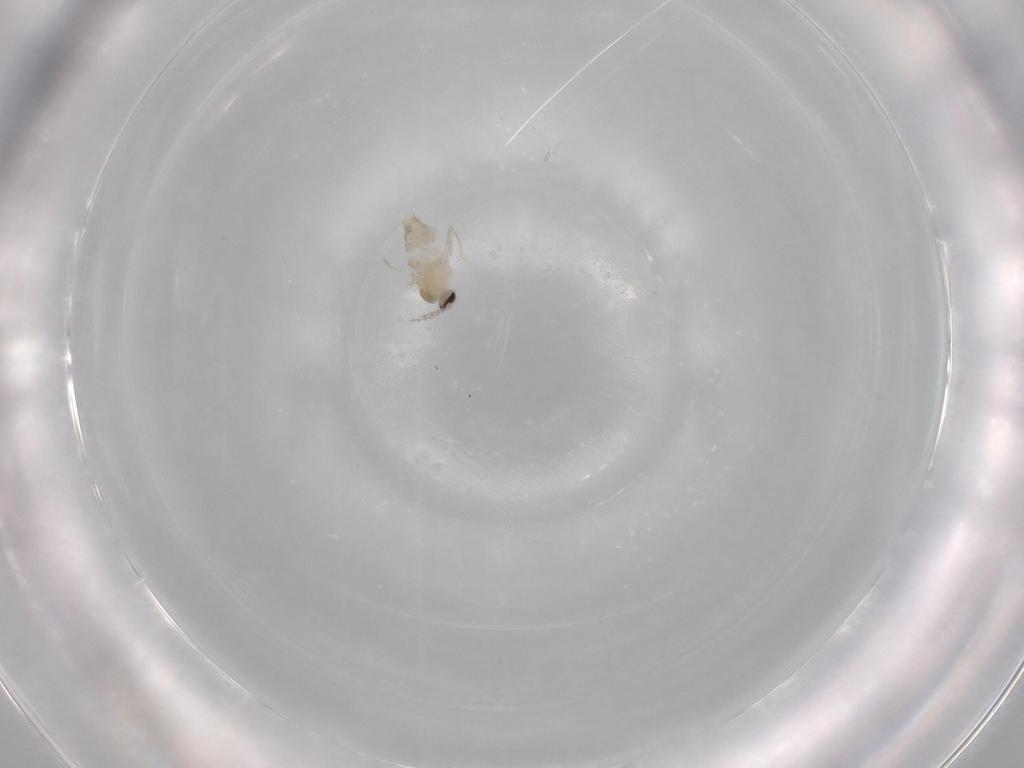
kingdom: Animalia
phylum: Arthropoda
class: Insecta
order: Diptera
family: Cecidomyiidae
